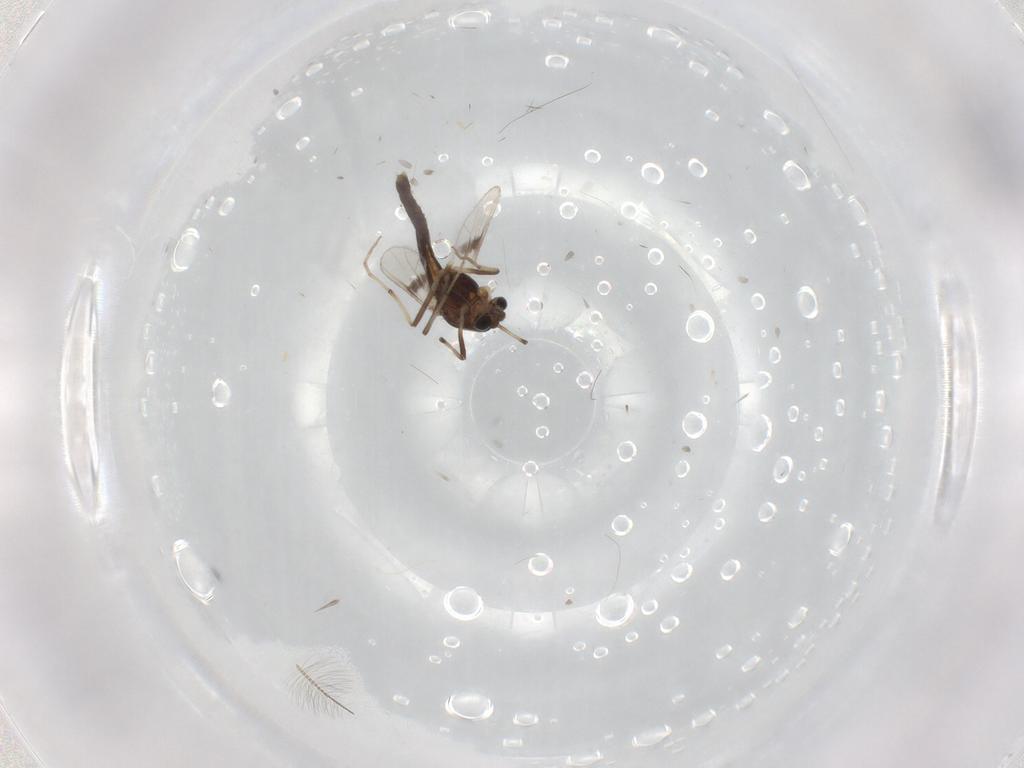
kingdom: Animalia
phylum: Arthropoda
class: Insecta
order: Diptera
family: Chironomidae
